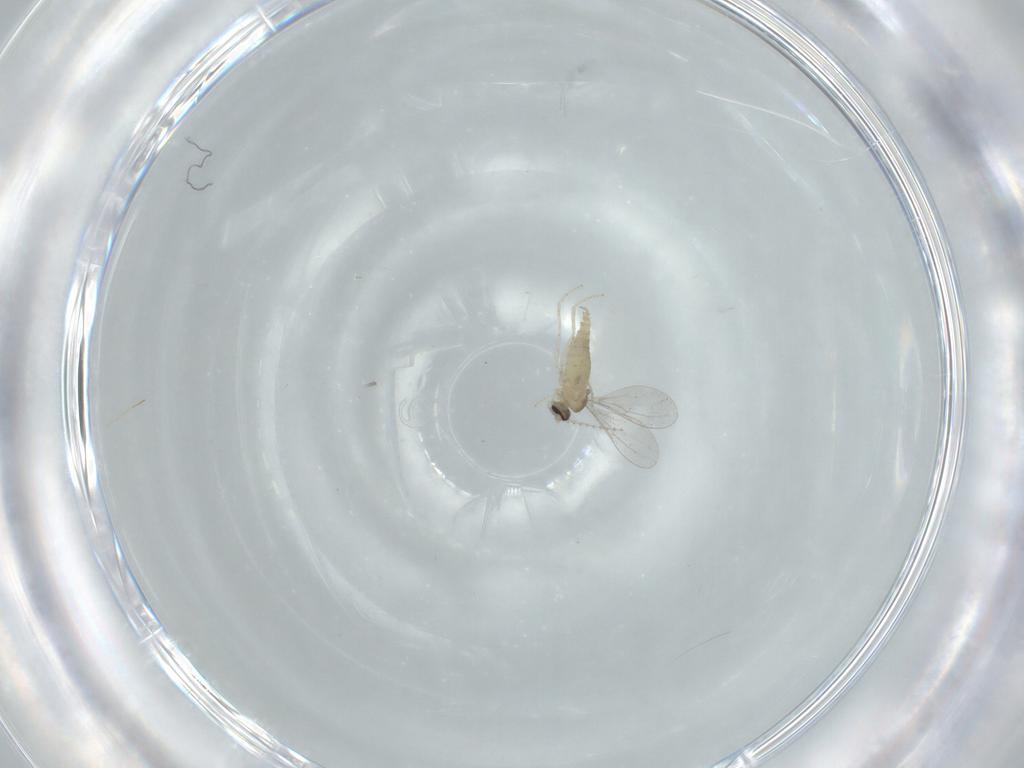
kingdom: Animalia
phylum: Arthropoda
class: Insecta
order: Diptera
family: Cecidomyiidae
